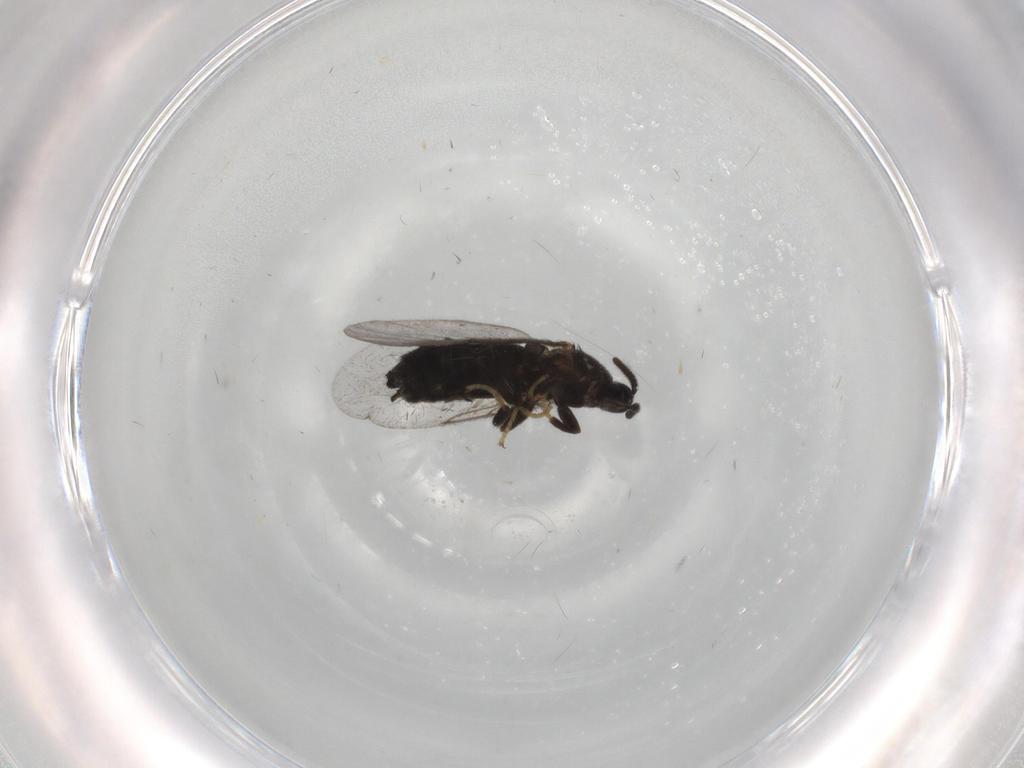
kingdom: Animalia
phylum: Arthropoda
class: Insecta
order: Diptera
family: Scatopsidae
